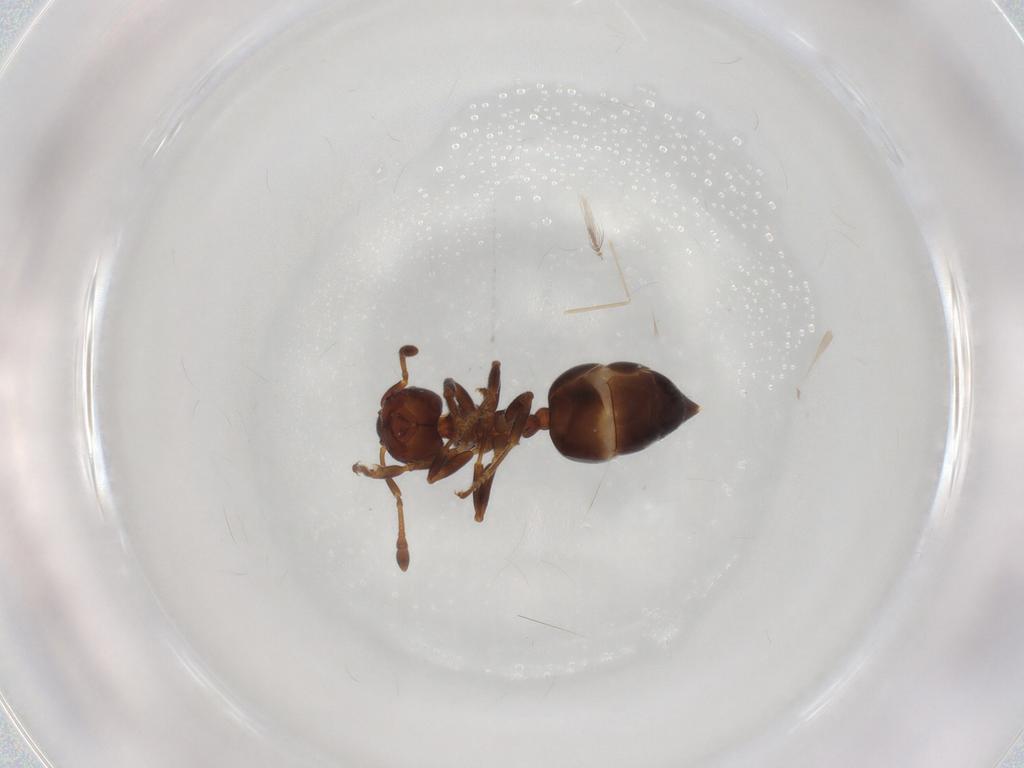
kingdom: Animalia
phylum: Arthropoda
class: Insecta
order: Hymenoptera
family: Formicidae
